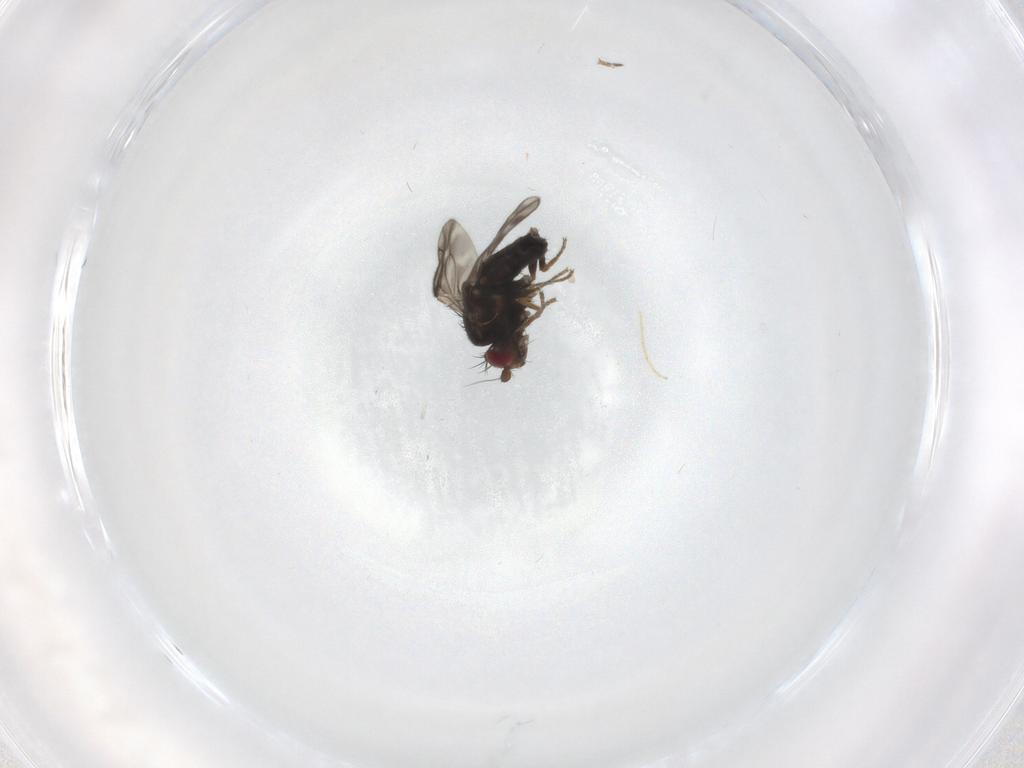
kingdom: Animalia
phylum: Arthropoda
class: Insecta
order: Diptera
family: Chironomidae
